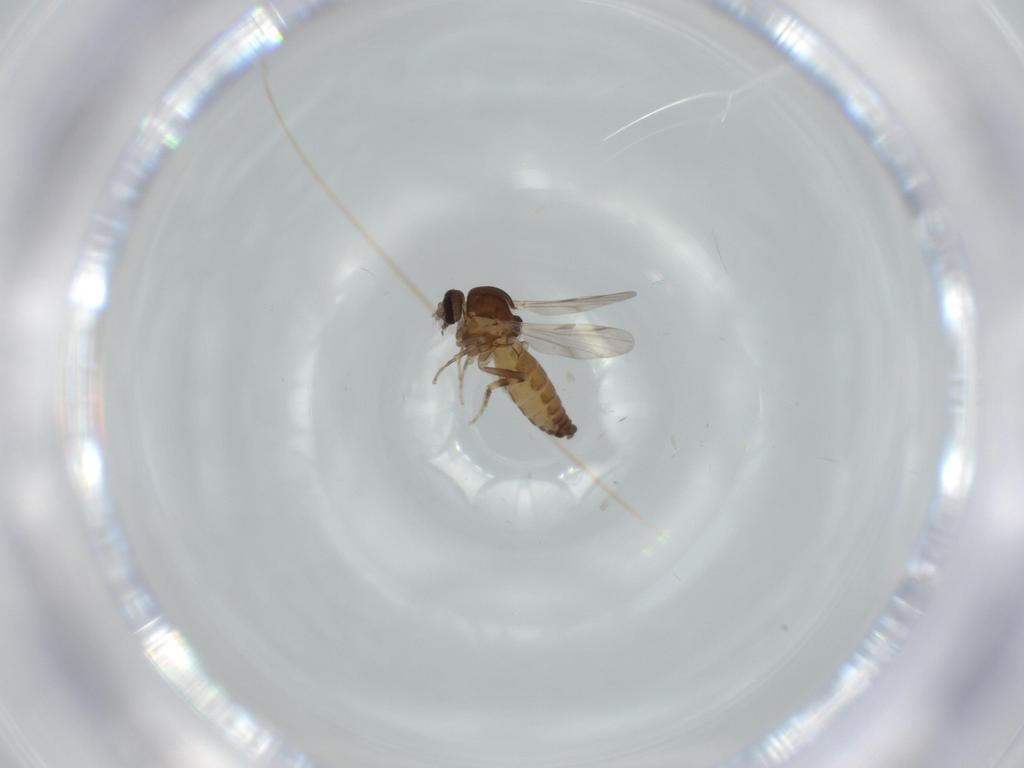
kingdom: Animalia
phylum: Arthropoda
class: Insecta
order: Diptera
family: Ceratopogonidae
